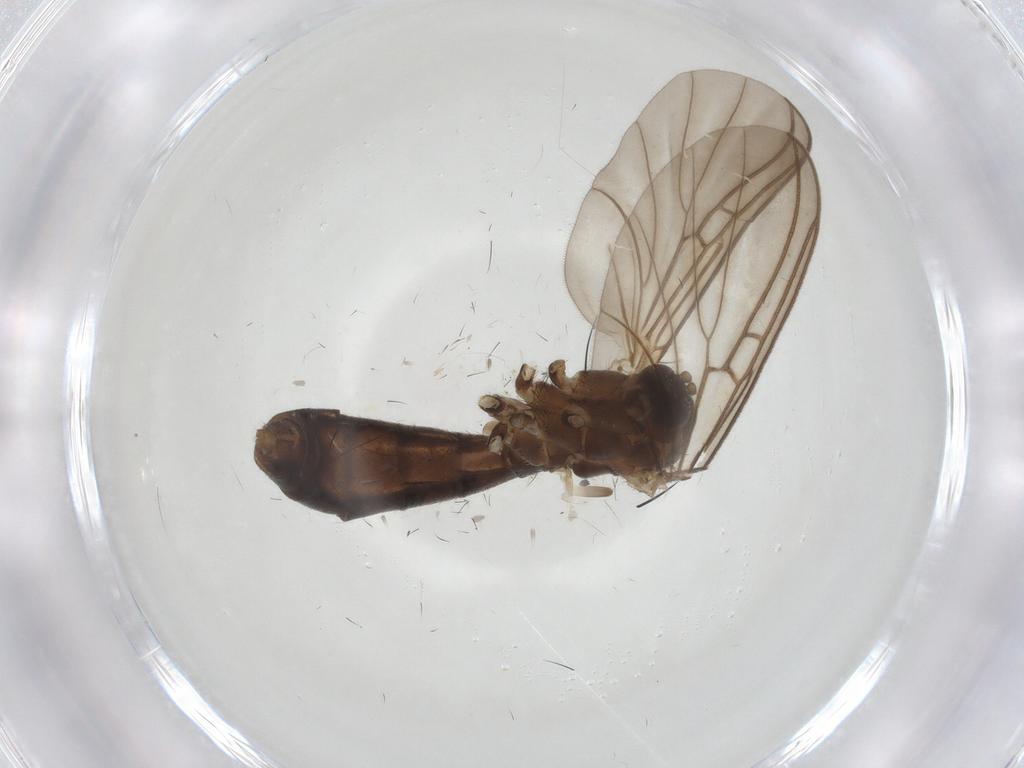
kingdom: Animalia
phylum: Arthropoda
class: Insecta
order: Diptera
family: Mycetophilidae
